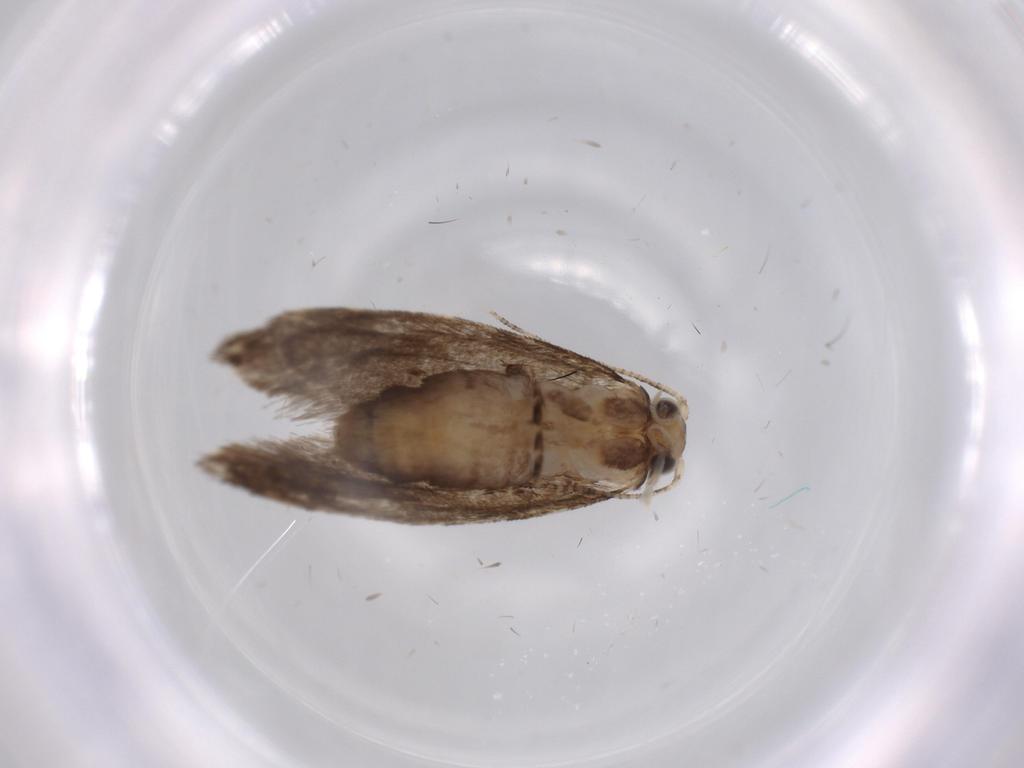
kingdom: Animalia
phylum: Arthropoda
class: Insecta
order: Lepidoptera
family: Tineidae
